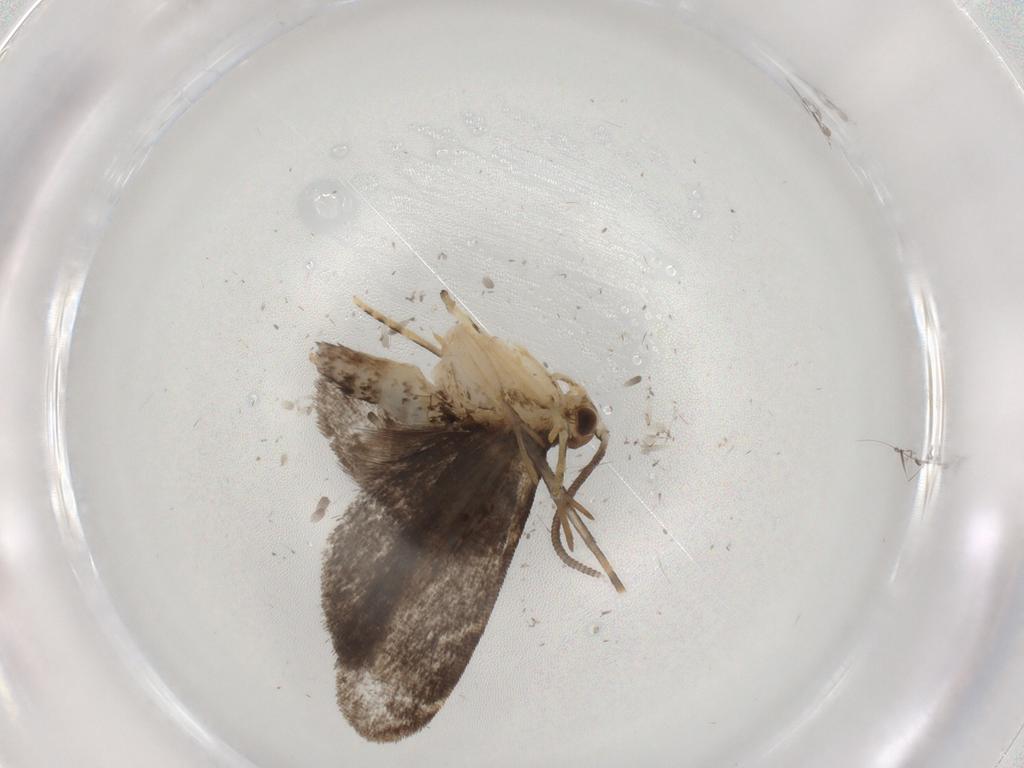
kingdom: Animalia
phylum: Arthropoda
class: Insecta
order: Lepidoptera
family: Dryadaulidae
